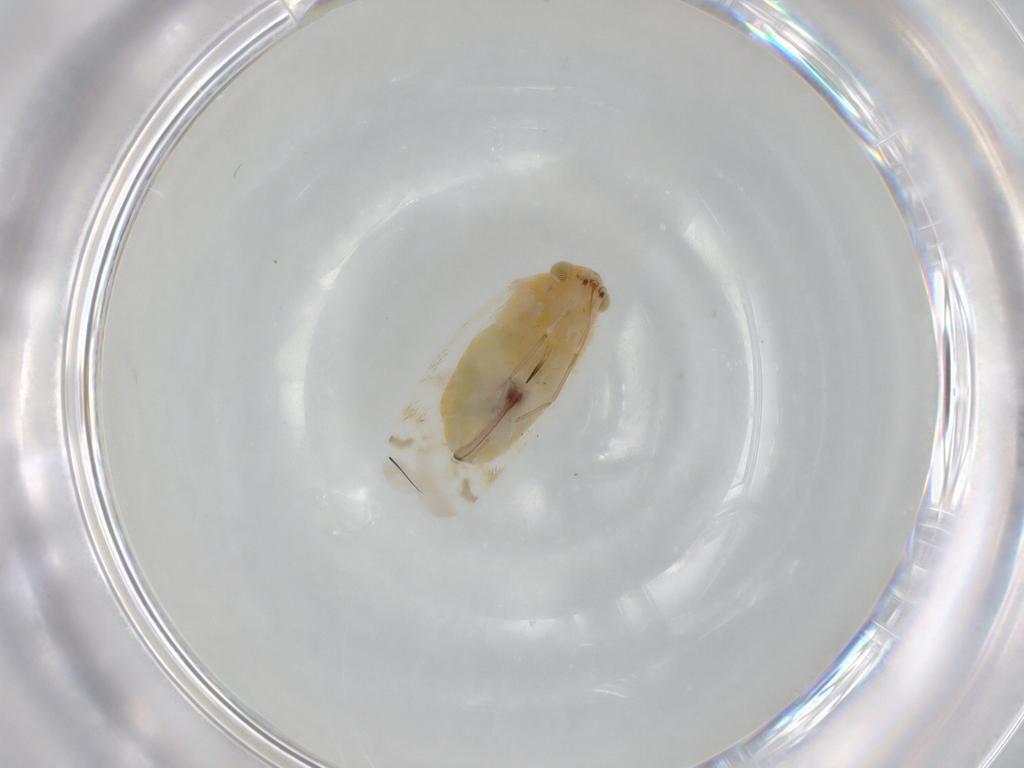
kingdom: Animalia
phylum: Arthropoda
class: Insecta
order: Hemiptera
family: Miridae
